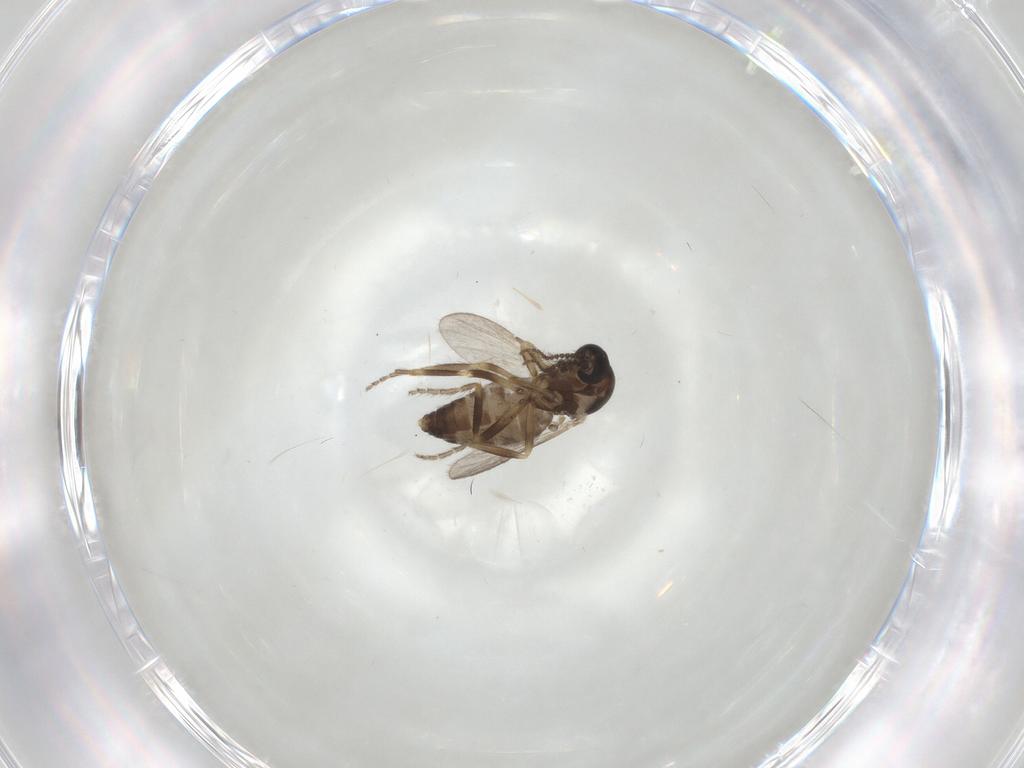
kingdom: Animalia
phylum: Arthropoda
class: Insecta
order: Diptera
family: Ceratopogonidae
